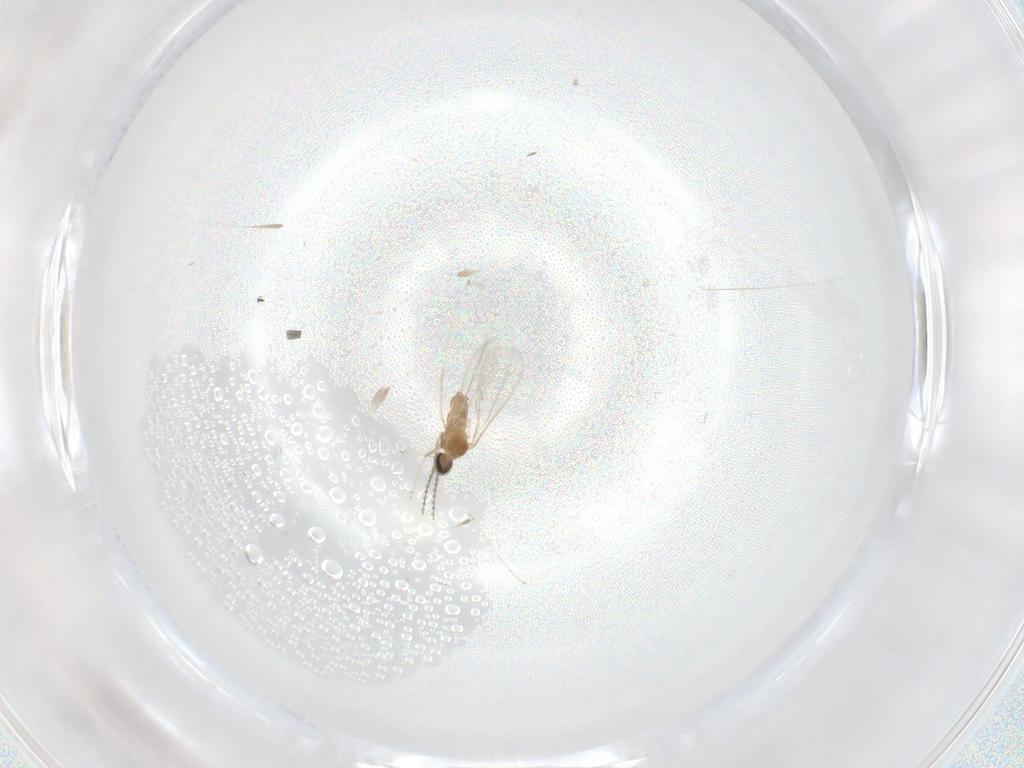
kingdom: Animalia
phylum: Arthropoda
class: Insecta
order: Diptera
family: Cecidomyiidae
